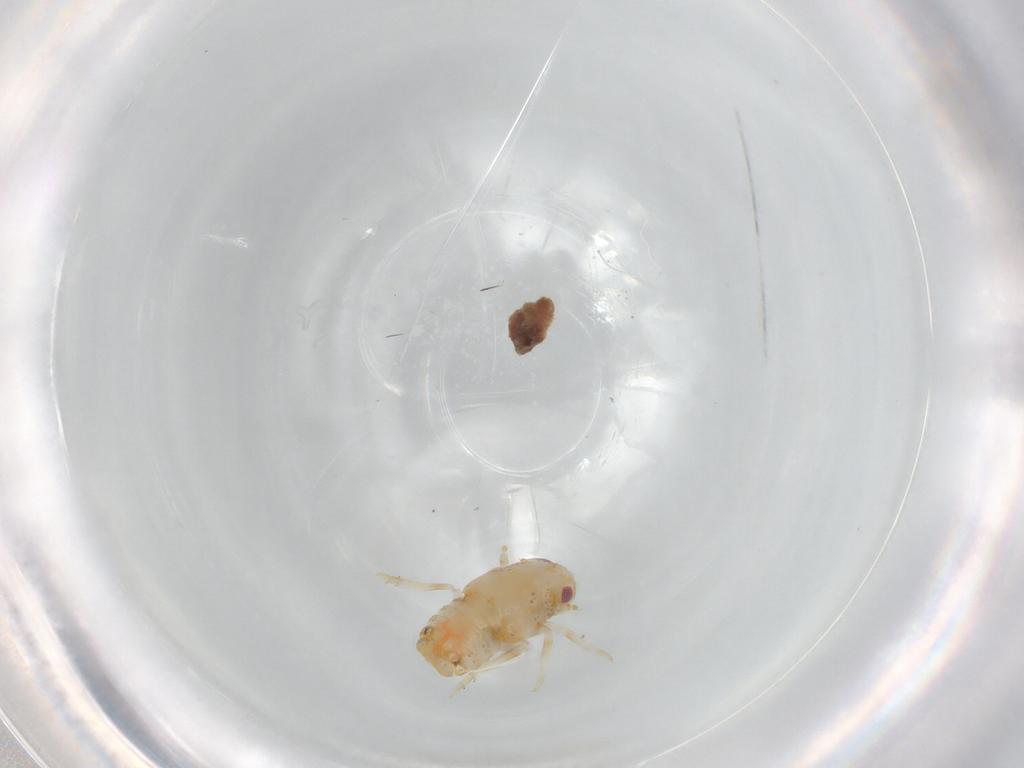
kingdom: Animalia
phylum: Arthropoda
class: Insecta
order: Hemiptera
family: Flatidae
